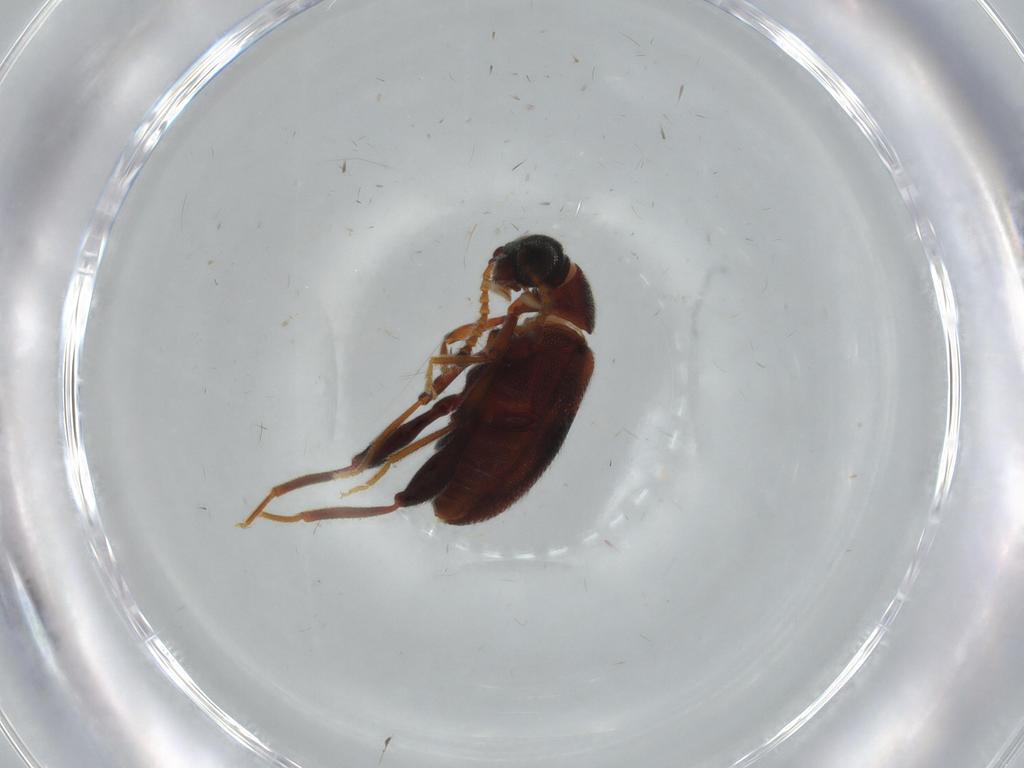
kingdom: Animalia
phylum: Arthropoda
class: Insecta
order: Coleoptera
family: Aderidae
